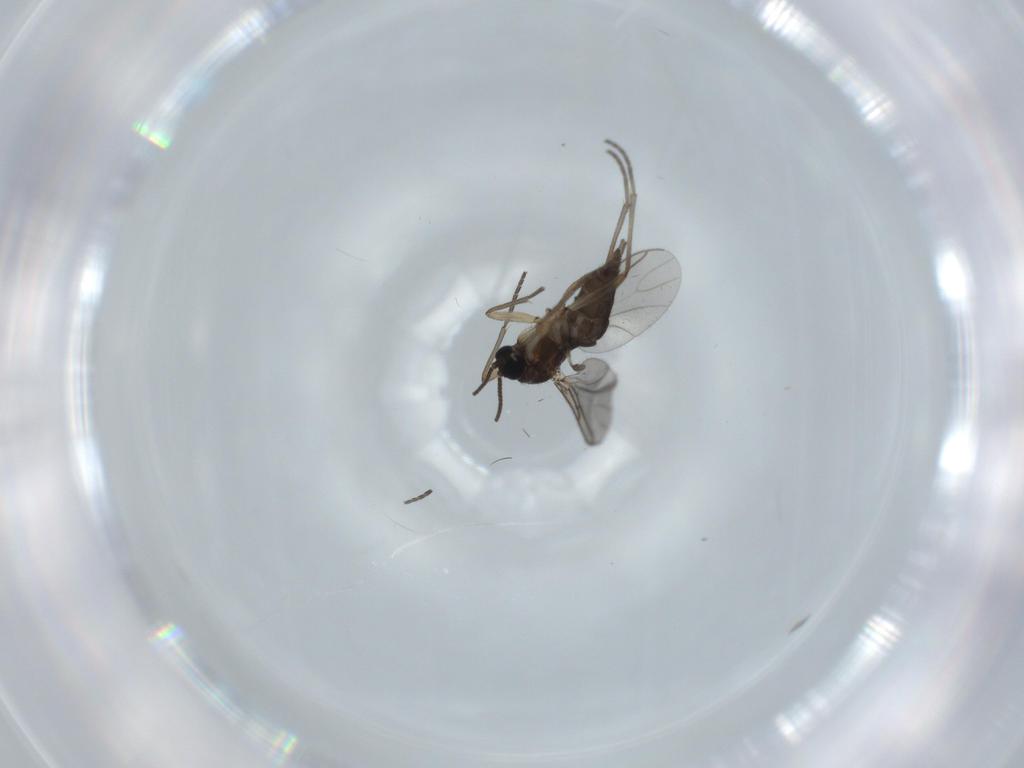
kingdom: Animalia
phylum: Arthropoda
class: Insecta
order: Diptera
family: Sciaridae
